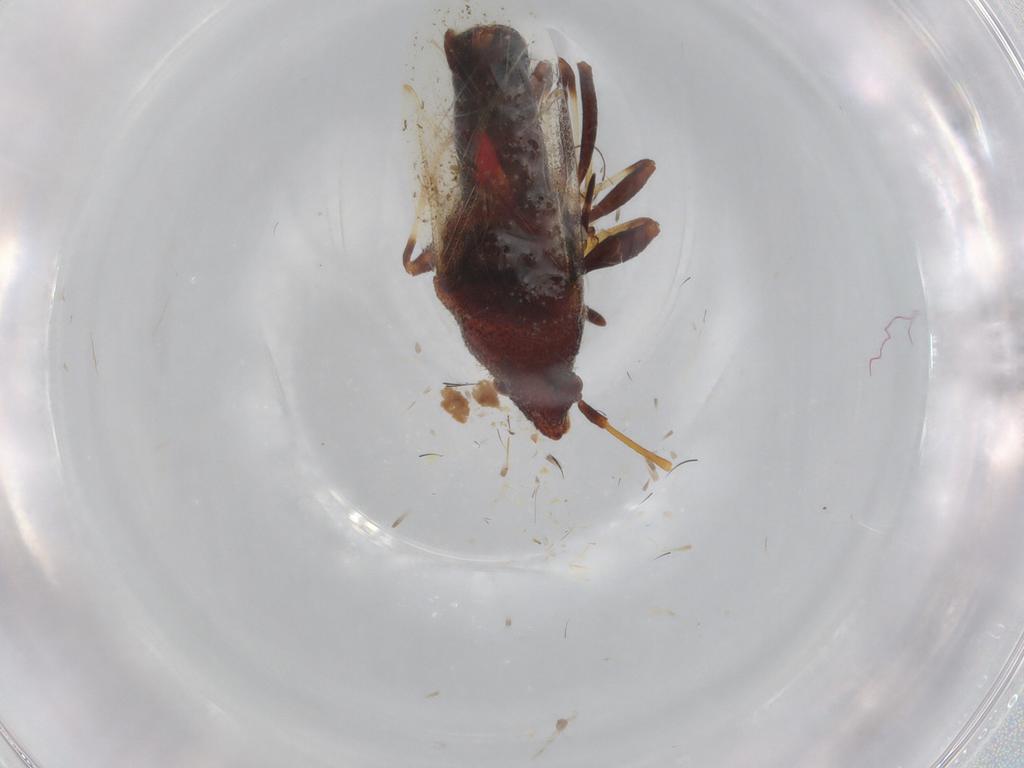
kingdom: Animalia
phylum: Arthropoda
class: Insecta
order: Hemiptera
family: Oxycarenidae
